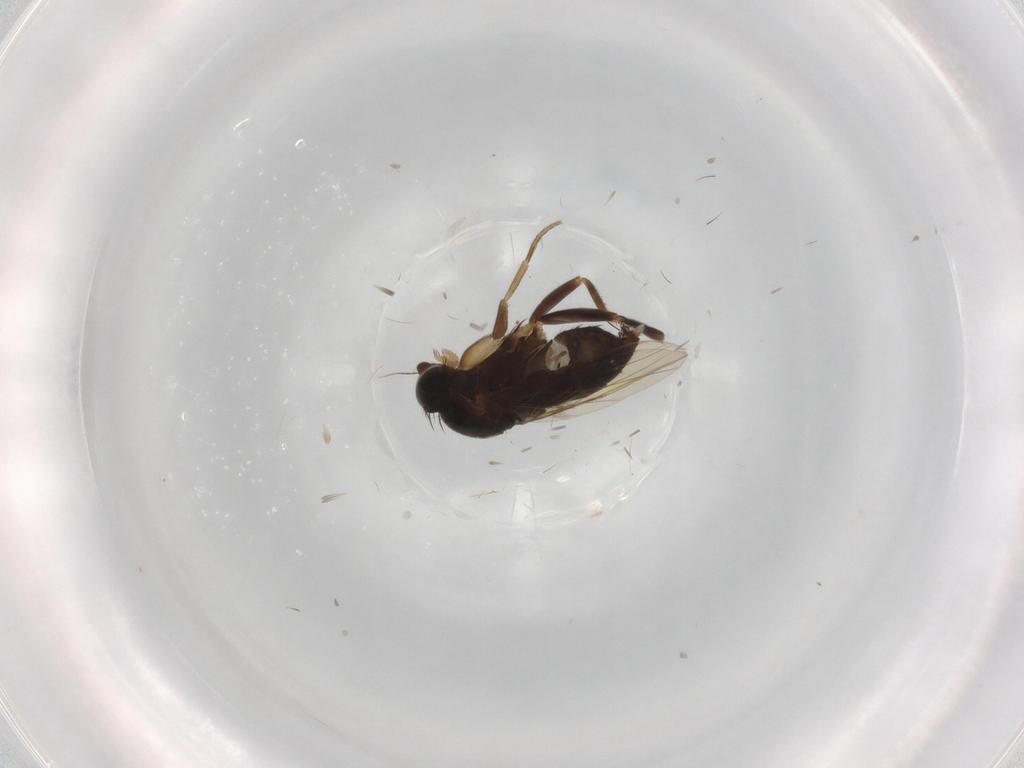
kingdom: Animalia
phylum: Arthropoda
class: Insecta
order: Diptera
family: Phoridae
